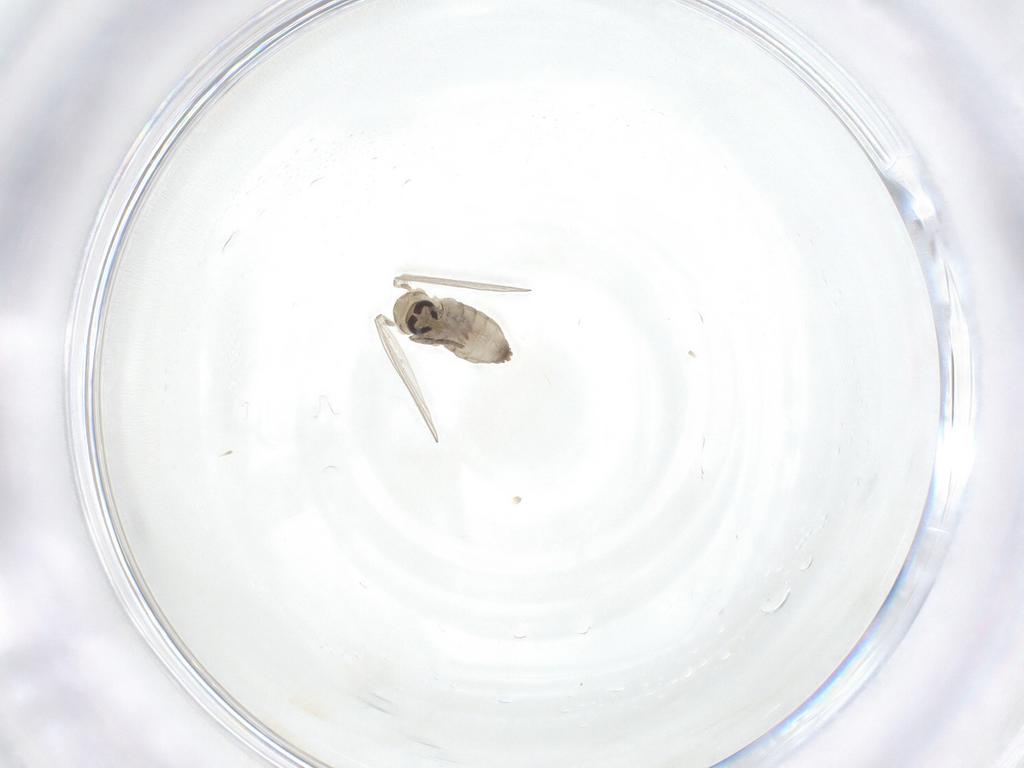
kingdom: Animalia
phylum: Arthropoda
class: Insecta
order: Diptera
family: Psychodidae
